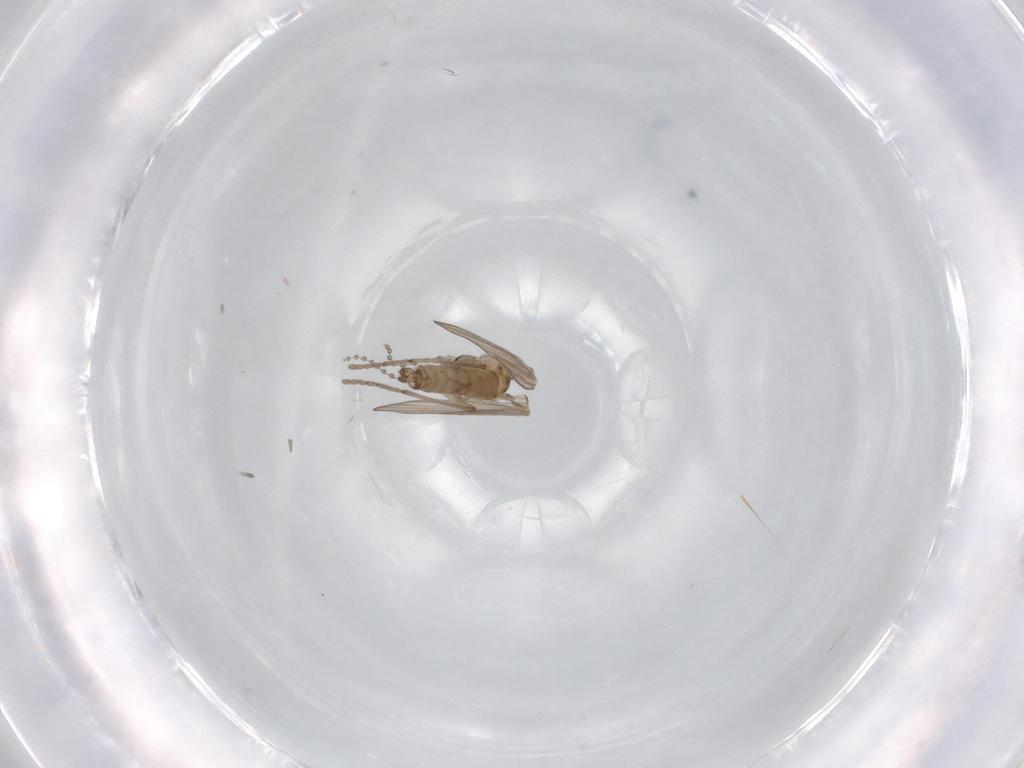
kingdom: Animalia
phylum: Arthropoda
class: Insecta
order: Diptera
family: Psychodidae
